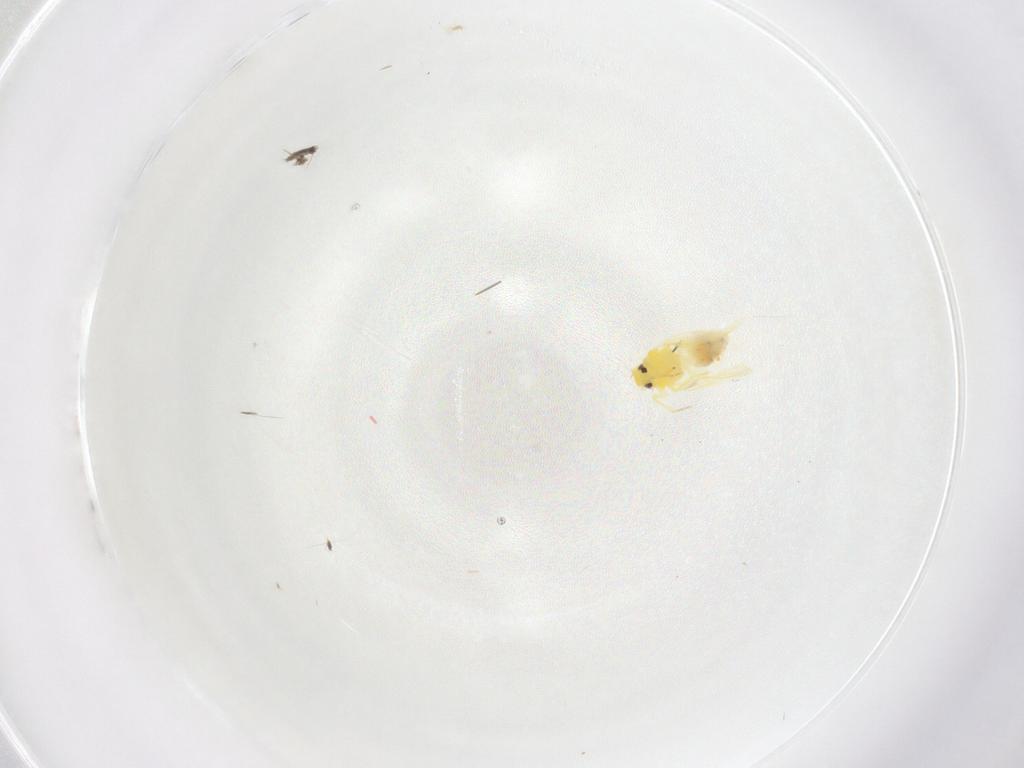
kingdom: Animalia
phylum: Arthropoda
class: Insecta
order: Hemiptera
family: Aleyrodidae
